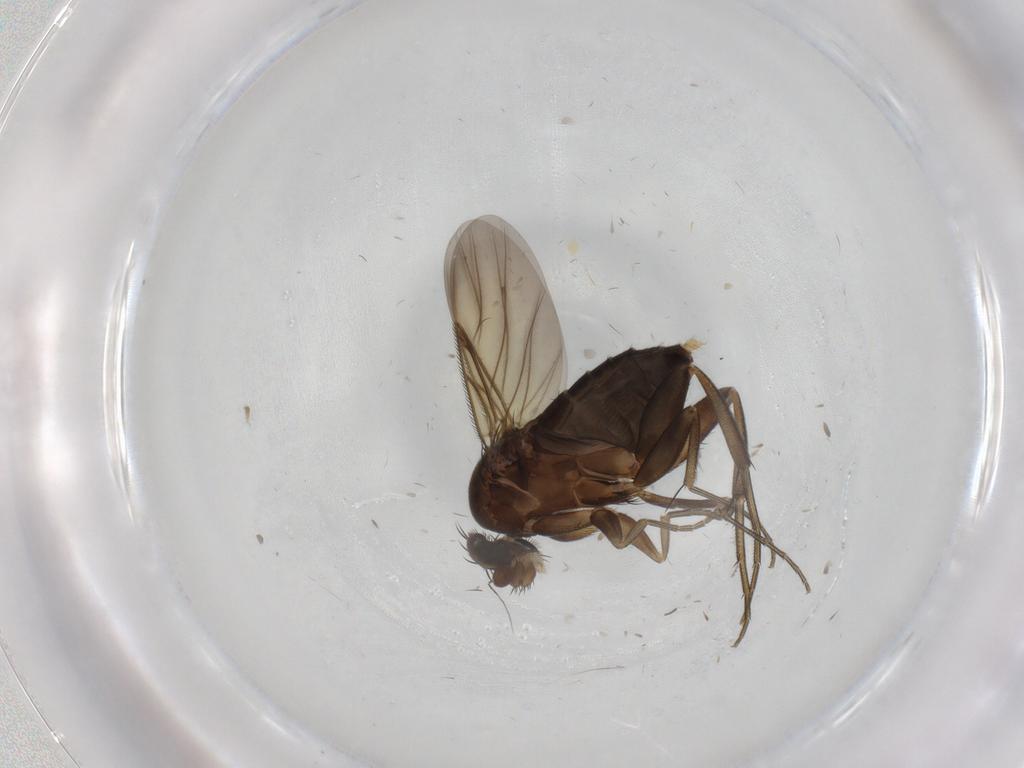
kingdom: Animalia
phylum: Arthropoda
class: Insecta
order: Diptera
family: Phoridae
